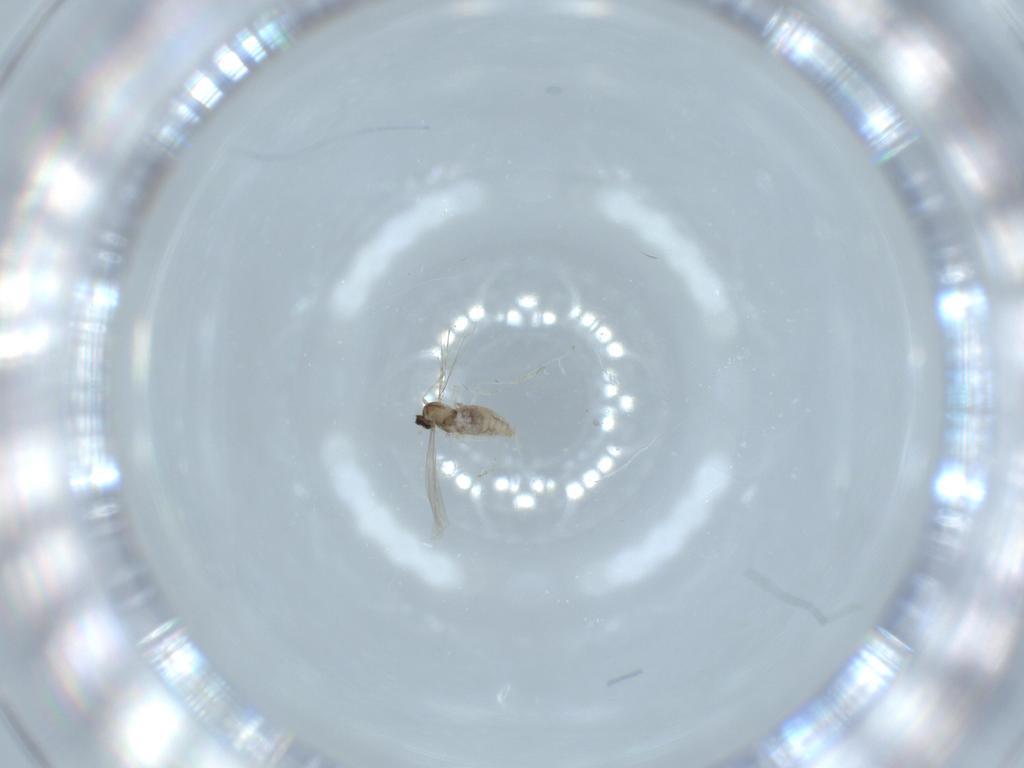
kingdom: Animalia
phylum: Arthropoda
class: Insecta
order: Diptera
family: Cecidomyiidae
